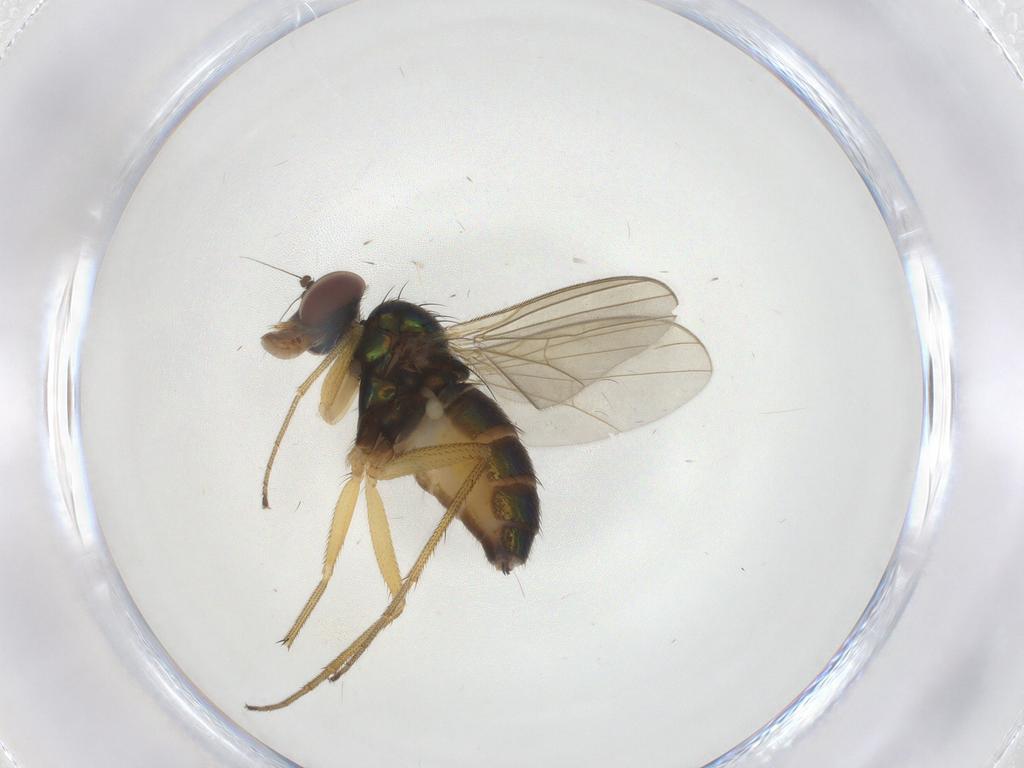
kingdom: Animalia
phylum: Arthropoda
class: Insecta
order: Diptera
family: Dolichopodidae
